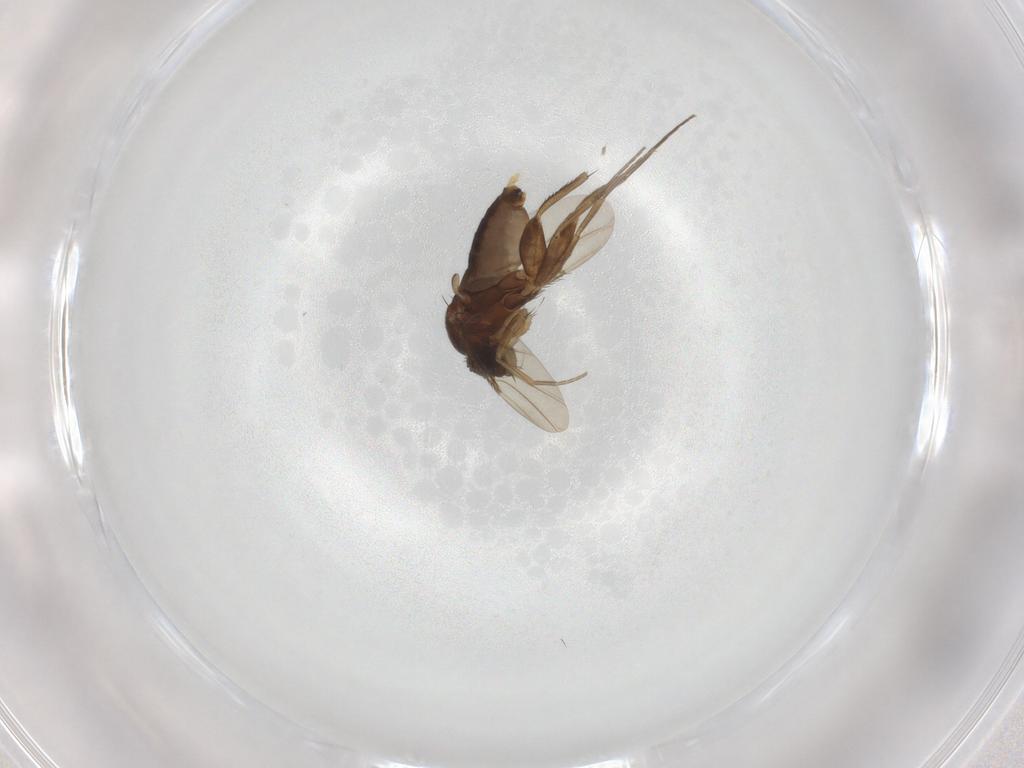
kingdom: Animalia
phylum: Arthropoda
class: Insecta
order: Diptera
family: Phoridae
